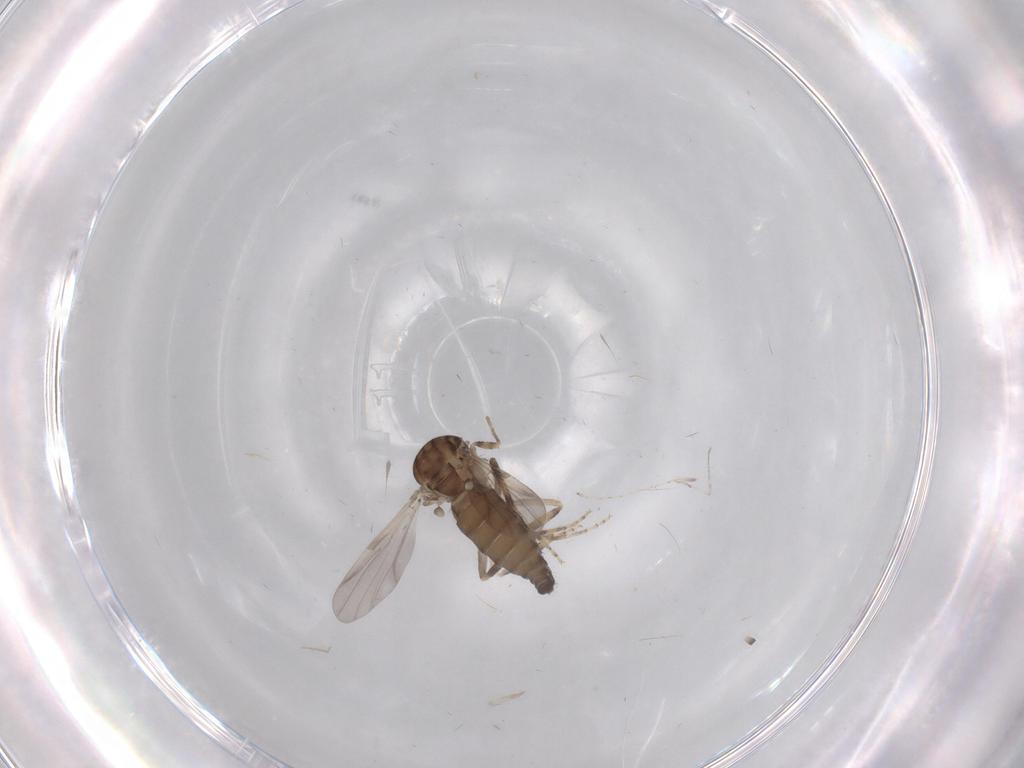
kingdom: Animalia
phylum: Arthropoda
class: Insecta
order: Diptera
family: Ceratopogonidae
